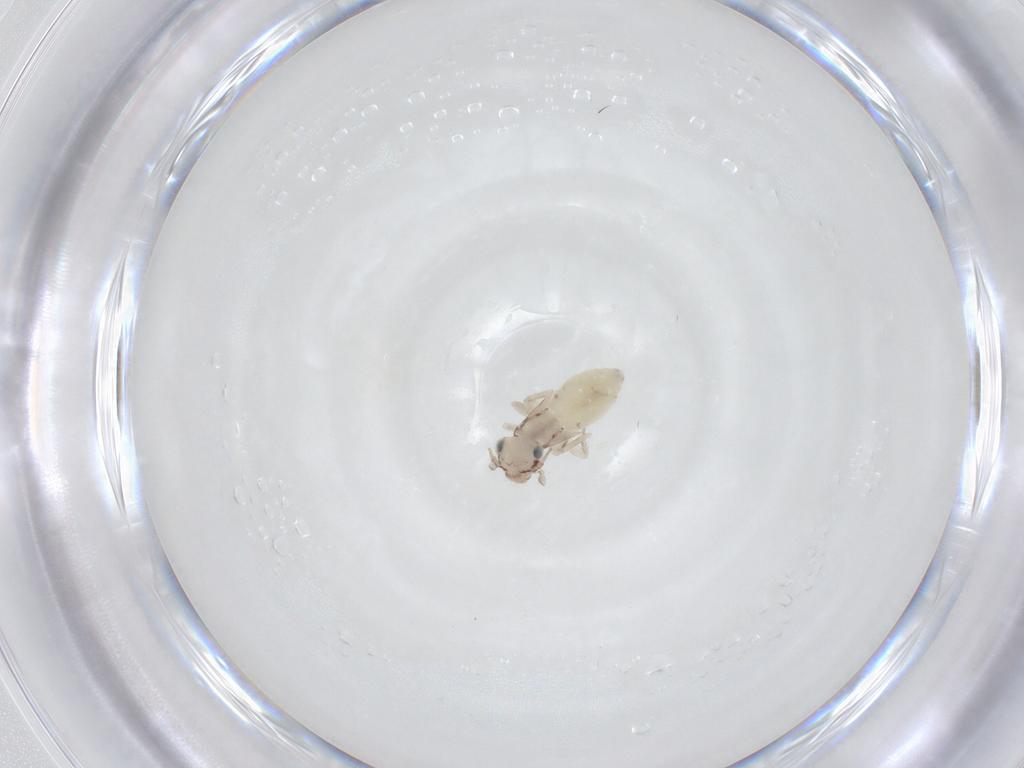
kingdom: Animalia
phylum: Arthropoda
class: Insecta
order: Psocodea
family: Lepidopsocidae
